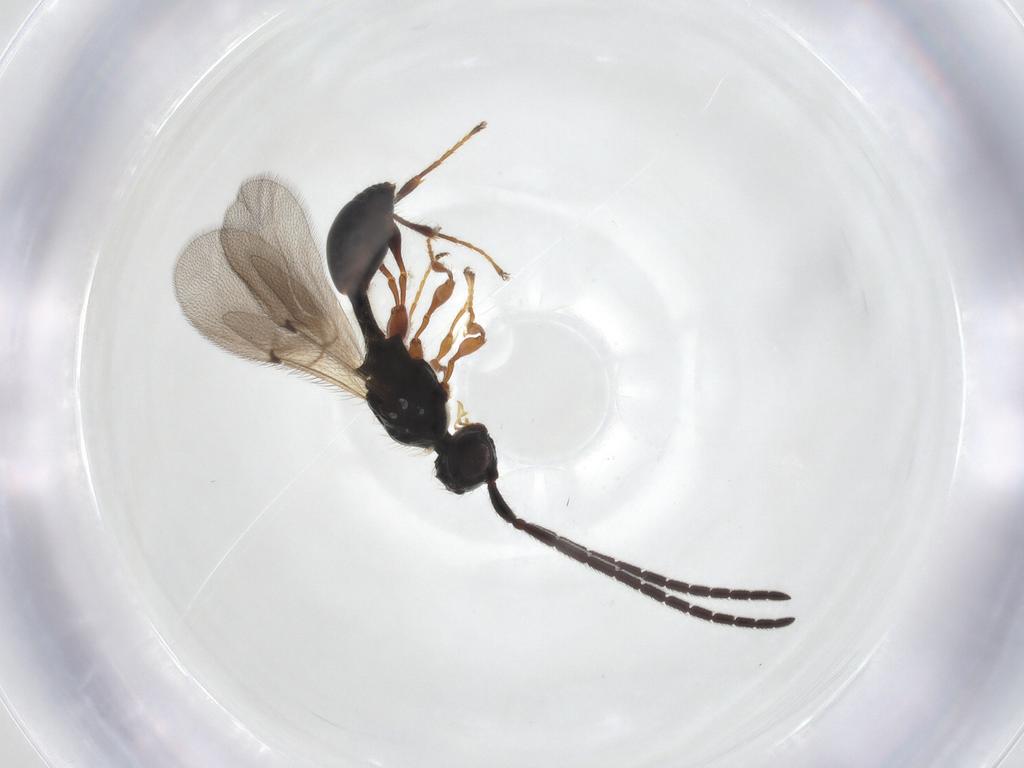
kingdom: Animalia
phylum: Arthropoda
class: Insecta
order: Hymenoptera
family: Diapriidae
